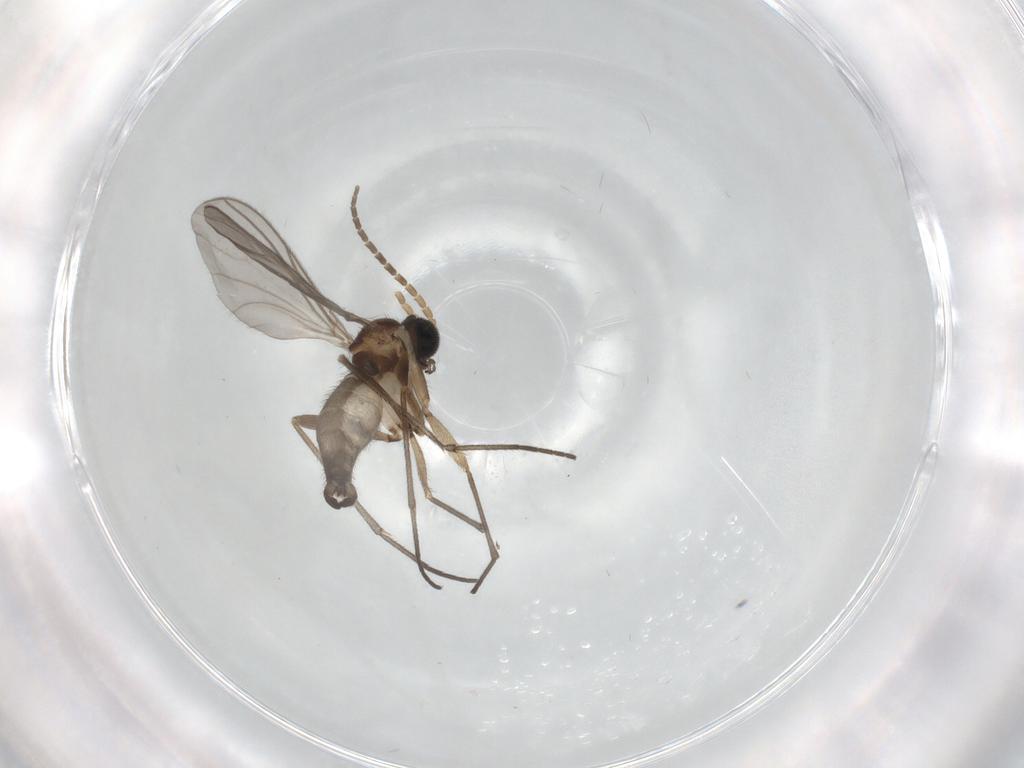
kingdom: Animalia
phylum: Arthropoda
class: Insecta
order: Diptera
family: Sciaridae
